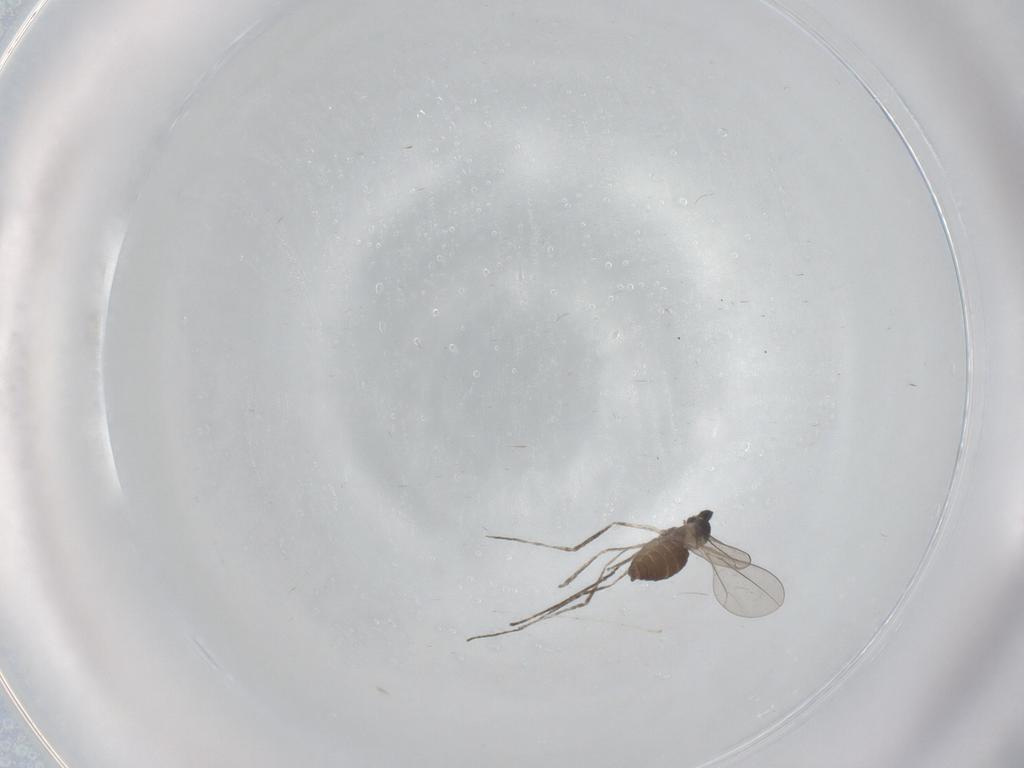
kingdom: Animalia
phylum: Arthropoda
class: Insecta
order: Diptera
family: Cecidomyiidae
